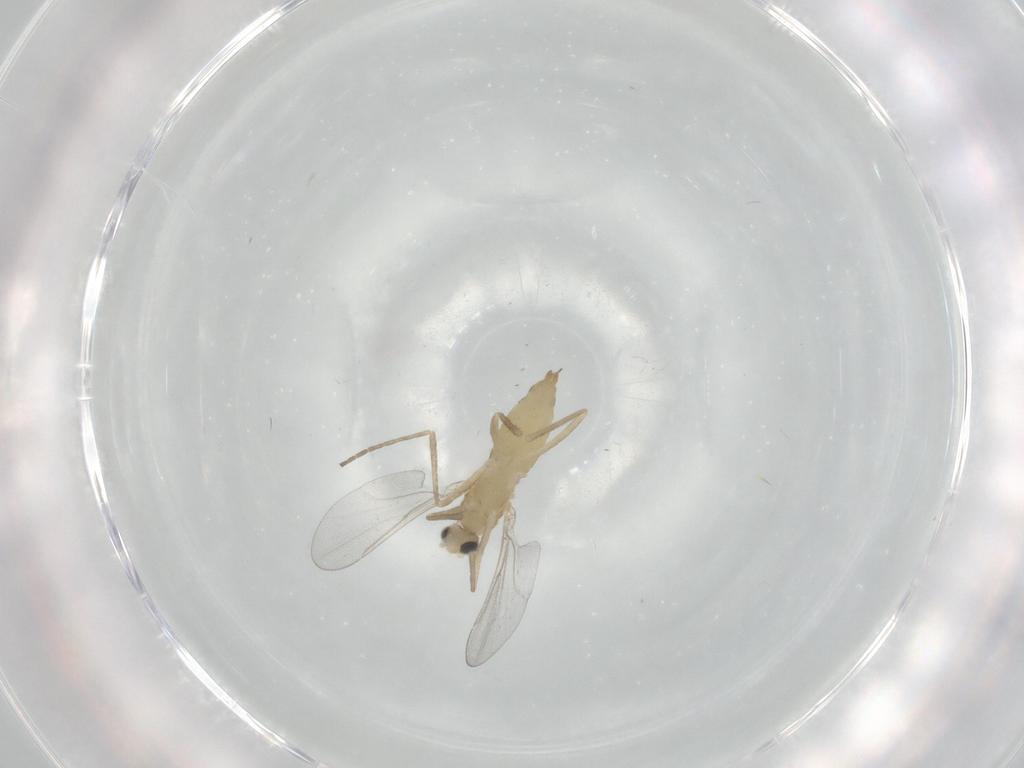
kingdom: Animalia
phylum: Arthropoda
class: Insecta
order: Diptera
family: Cecidomyiidae
